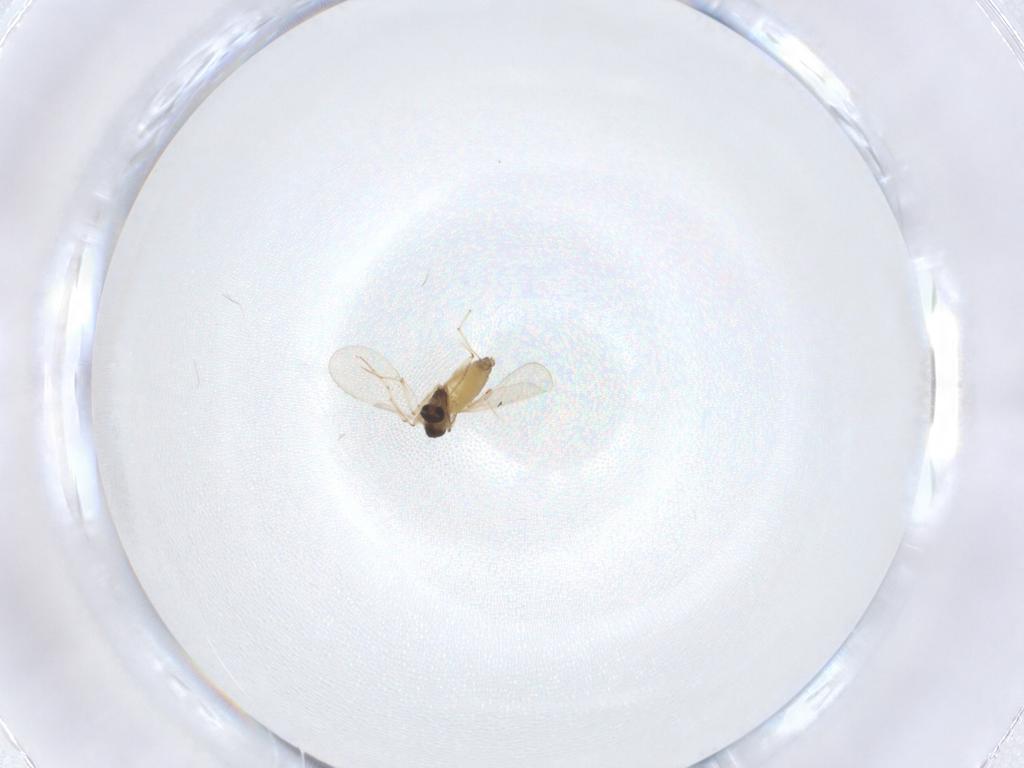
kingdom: Animalia
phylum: Arthropoda
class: Insecta
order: Diptera
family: Chironomidae
